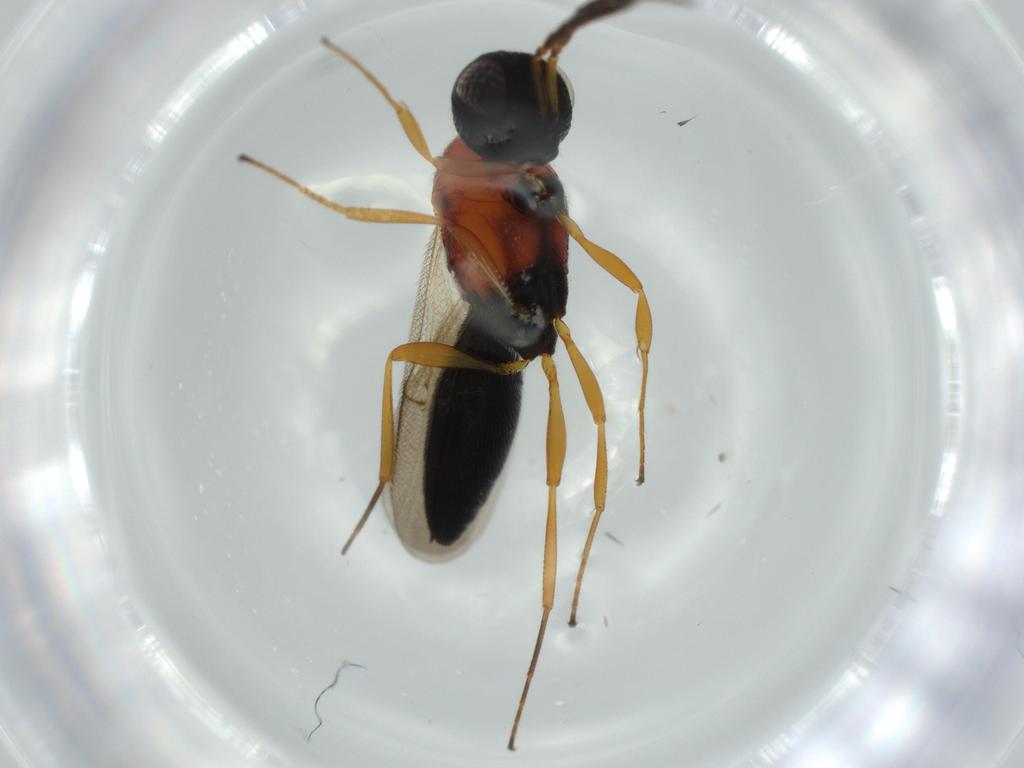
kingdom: Animalia
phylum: Arthropoda
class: Insecta
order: Hymenoptera
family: Scelionidae
